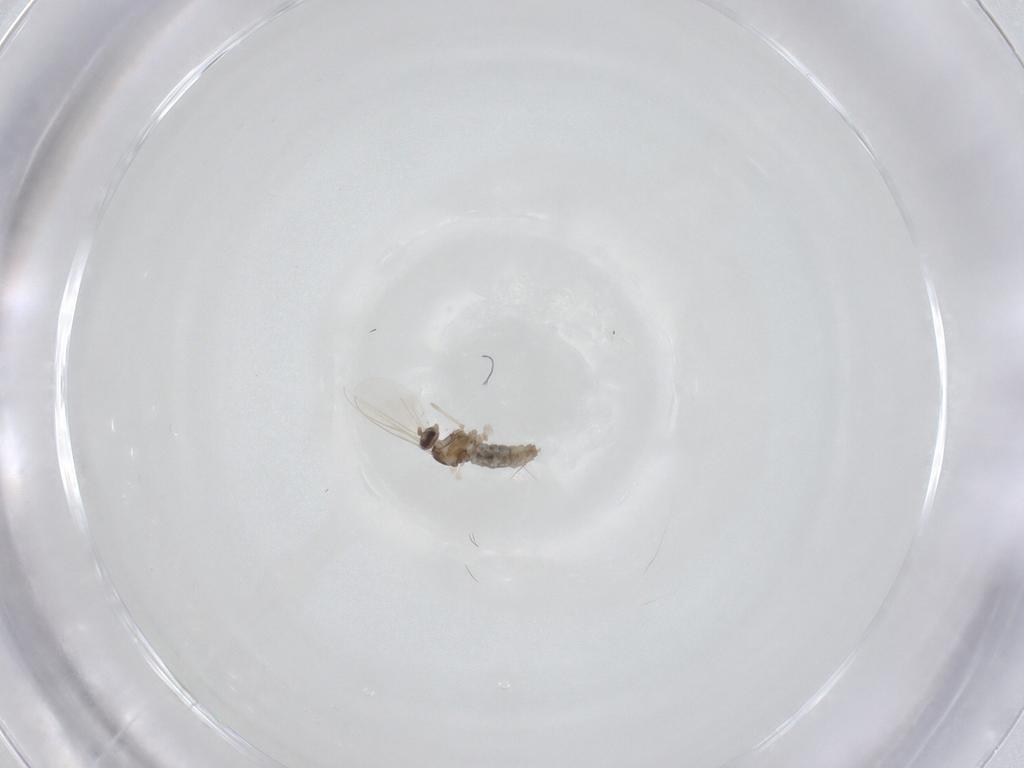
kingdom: Animalia
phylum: Arthropoda
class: Insecta
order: Diptera
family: Cecidomyiidae
